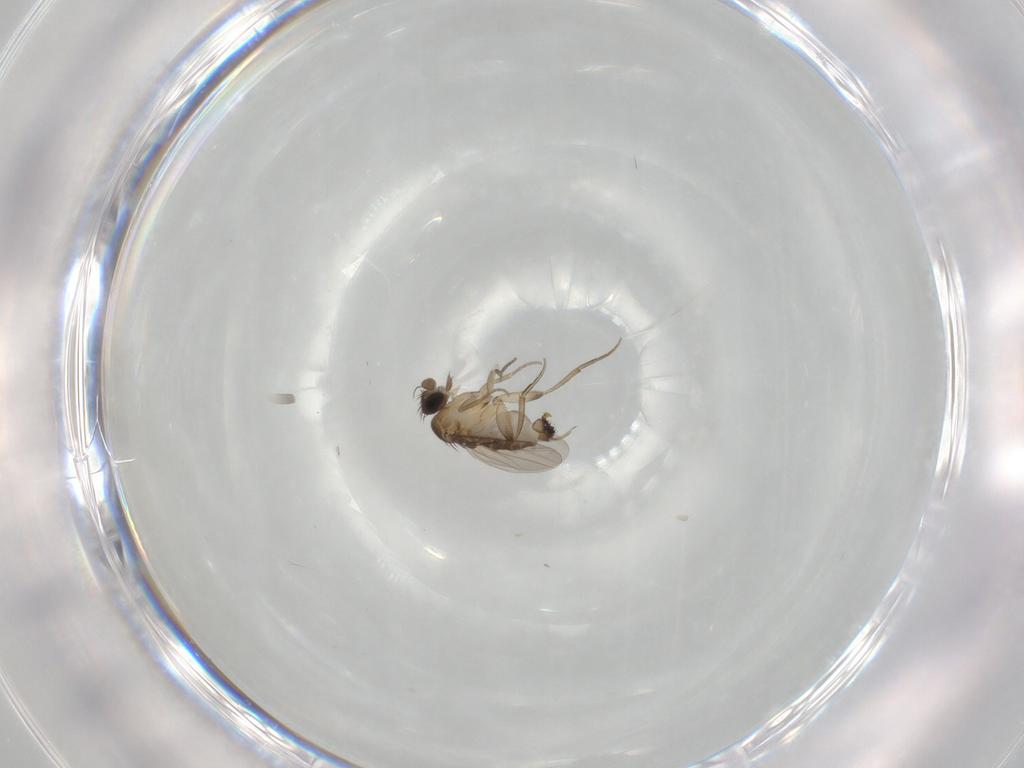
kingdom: Animalia
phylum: Arthropoda
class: Insecta
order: Diptera
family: Phoridae
